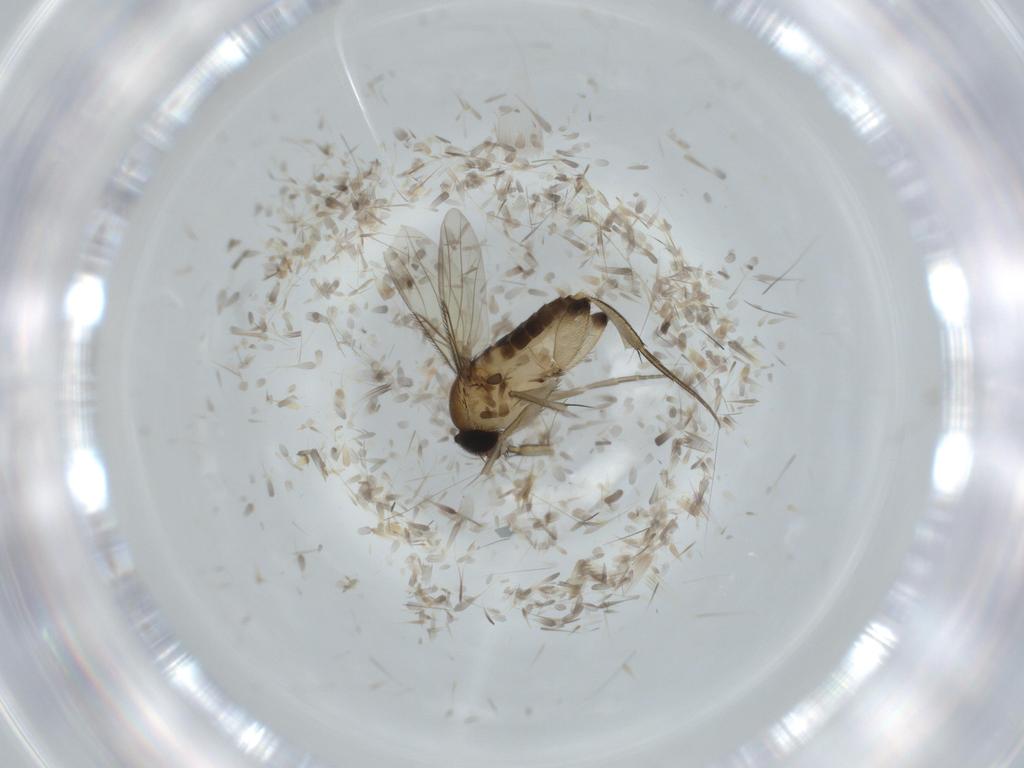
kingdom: Animalia
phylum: Arthropoda
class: Insecta
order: Diptera
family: Phoridae
